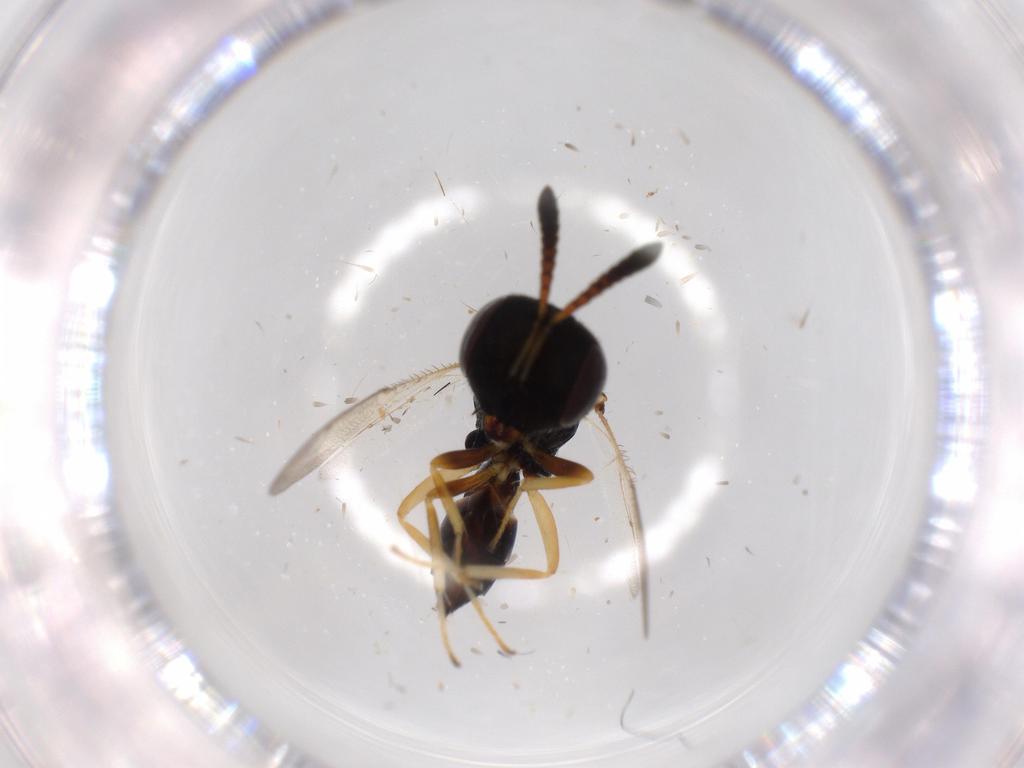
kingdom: Animalia
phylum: Arthropoda
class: Insecta
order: Hymenoptera
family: Pteromalidae
